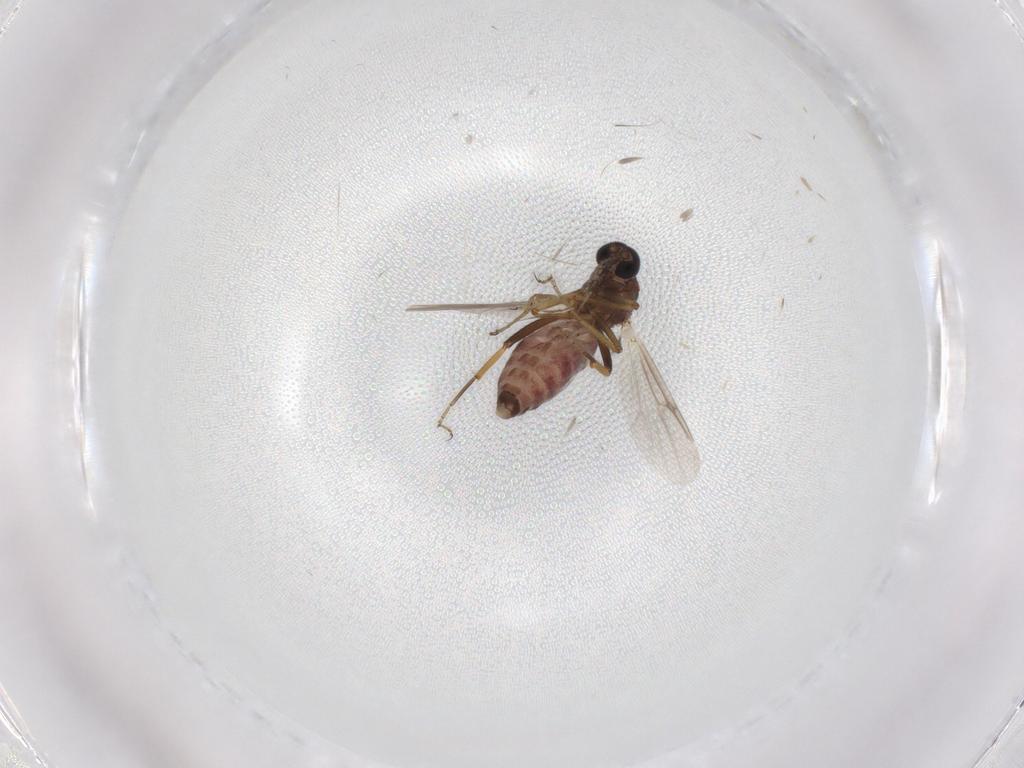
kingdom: Animalia
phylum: Arthropoda
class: Insecta
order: Diptera
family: Ceratopogonidae
